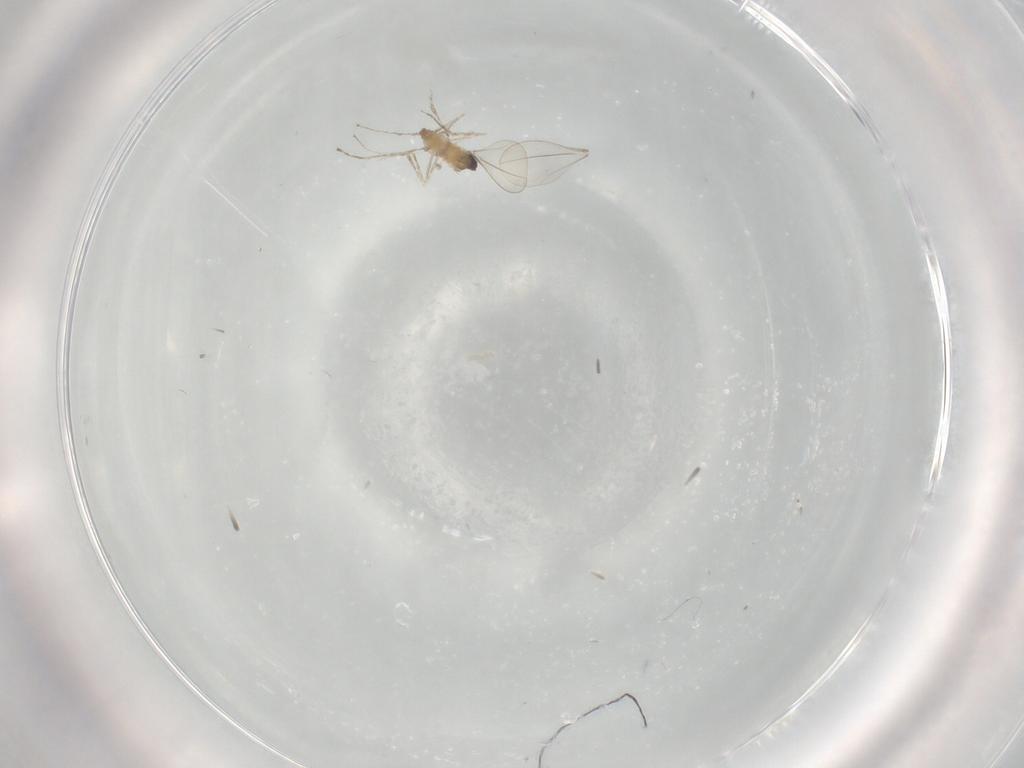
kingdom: Animalia
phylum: Arthropoda
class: Insecta
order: Diptera
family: Cecidomyiidae
